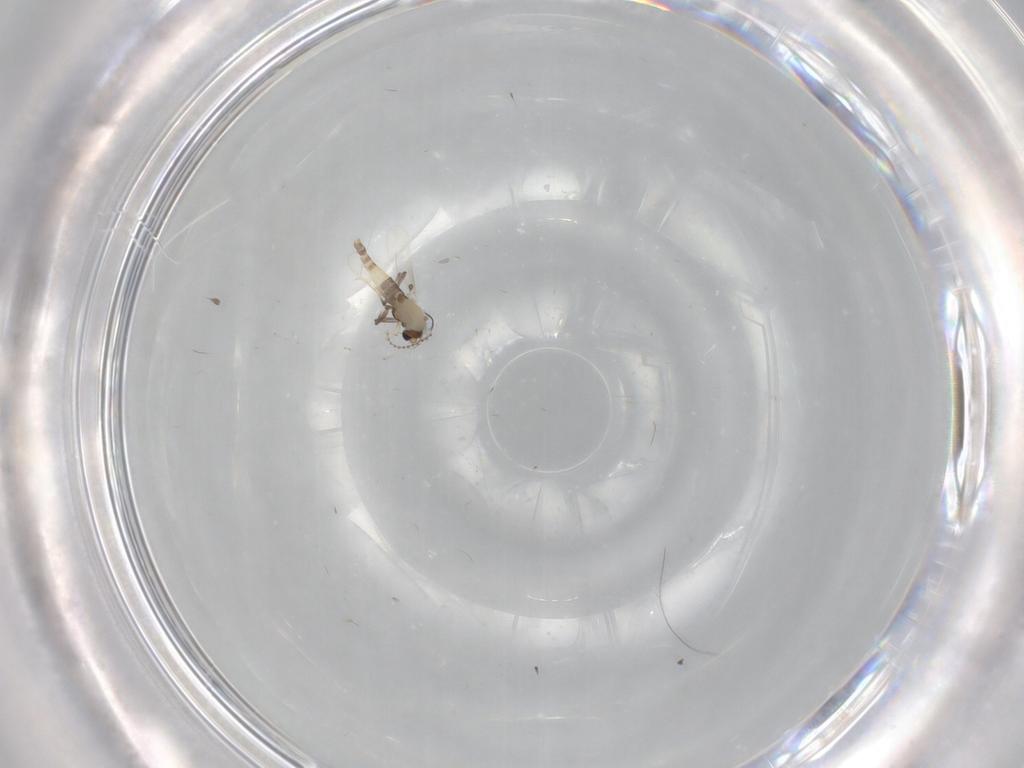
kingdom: Animalia
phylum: Arthropoda
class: Insecta
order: Diptera
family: Chironomidae
